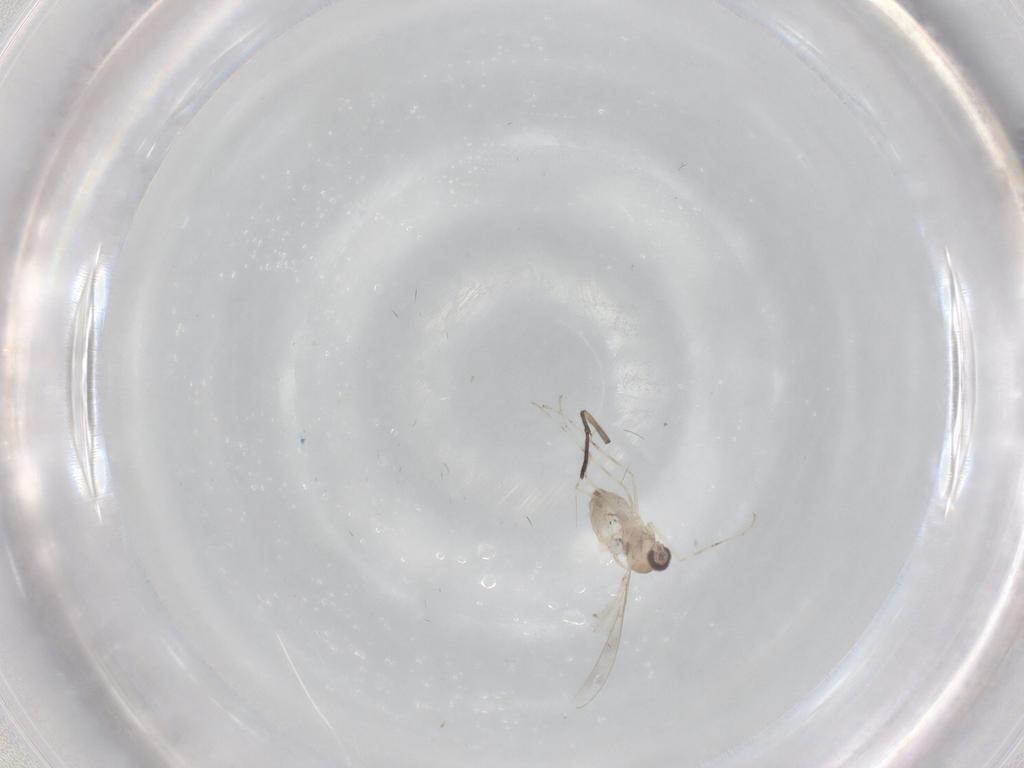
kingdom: Animalia
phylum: Arthropoda
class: Insecta
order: Diptera
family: Cecidomyiidae
